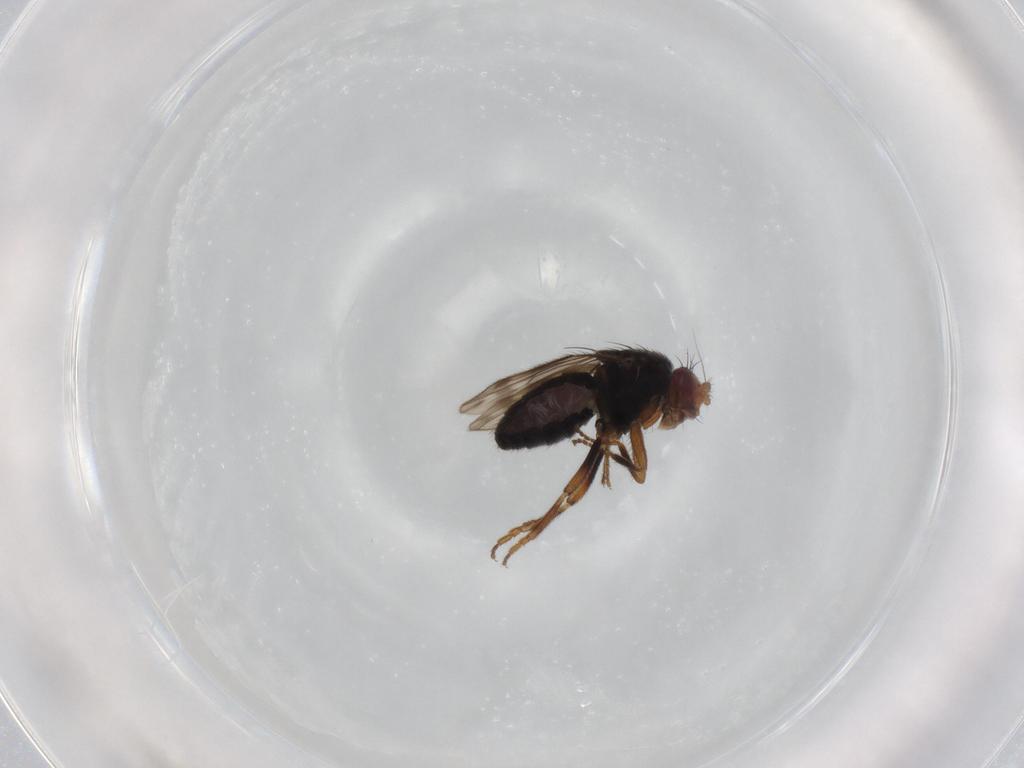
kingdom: Animalia
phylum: Arthropoda
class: Insecta
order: Diptera
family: Sphaeroceridae
